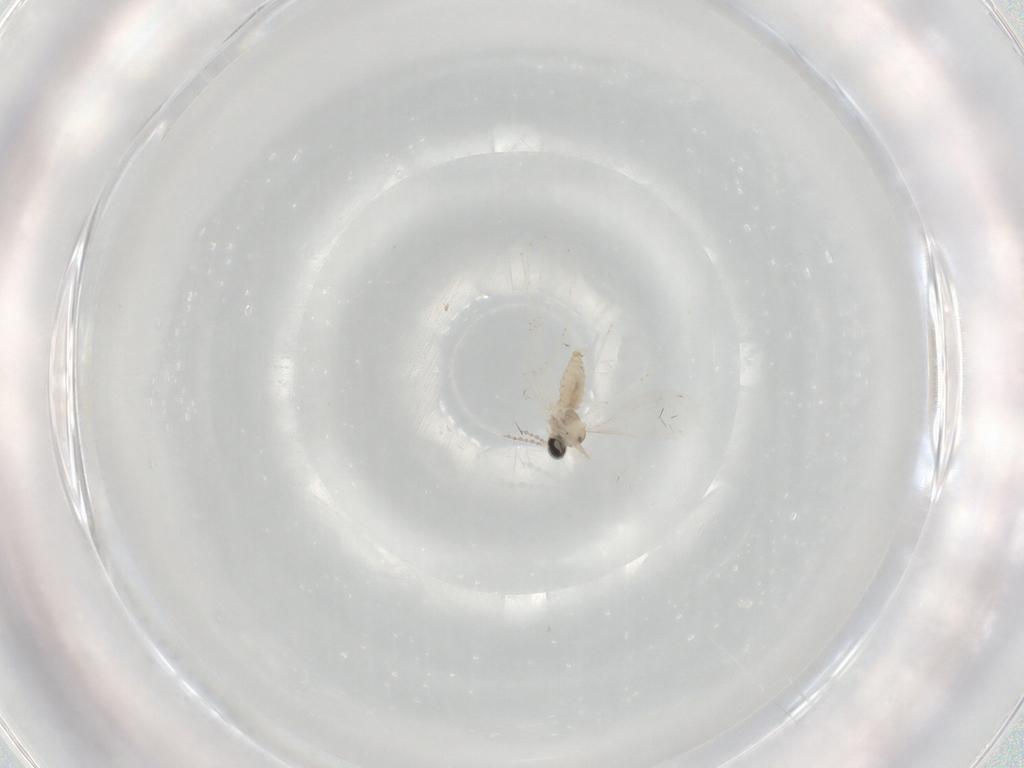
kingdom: Animalia
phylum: Arthropoda
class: Insecta
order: Diptera
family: Cecidomyiidae
